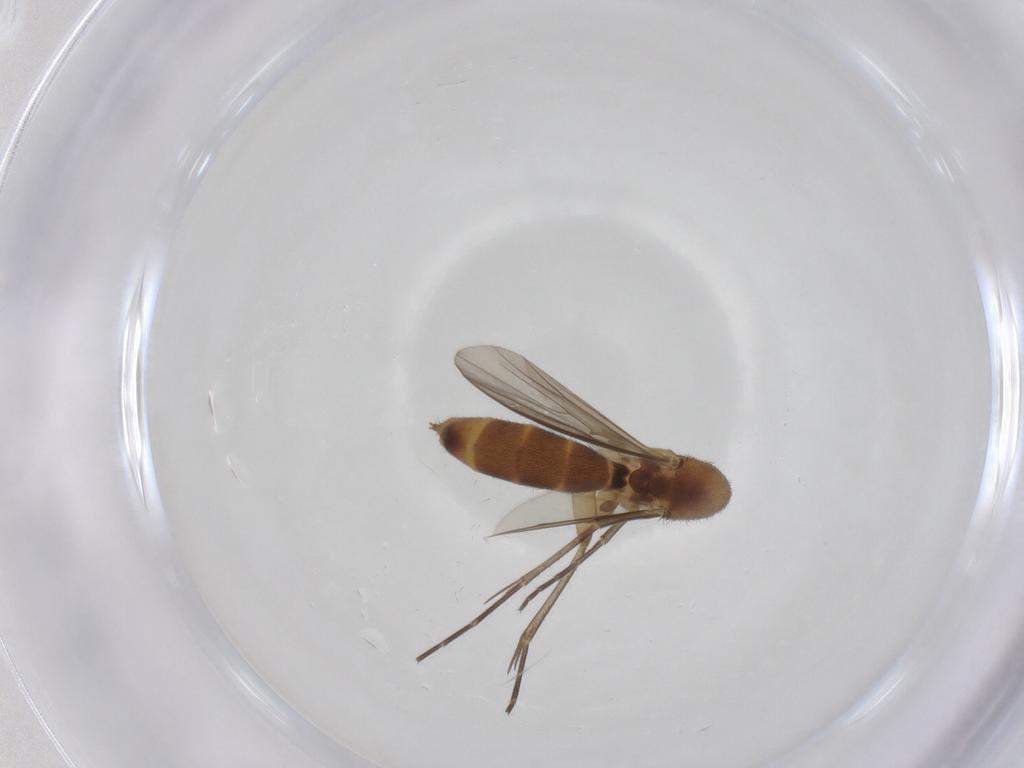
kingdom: Animalia
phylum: Arthropoda
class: Insecta
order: Diptera
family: Mycetophilidae
